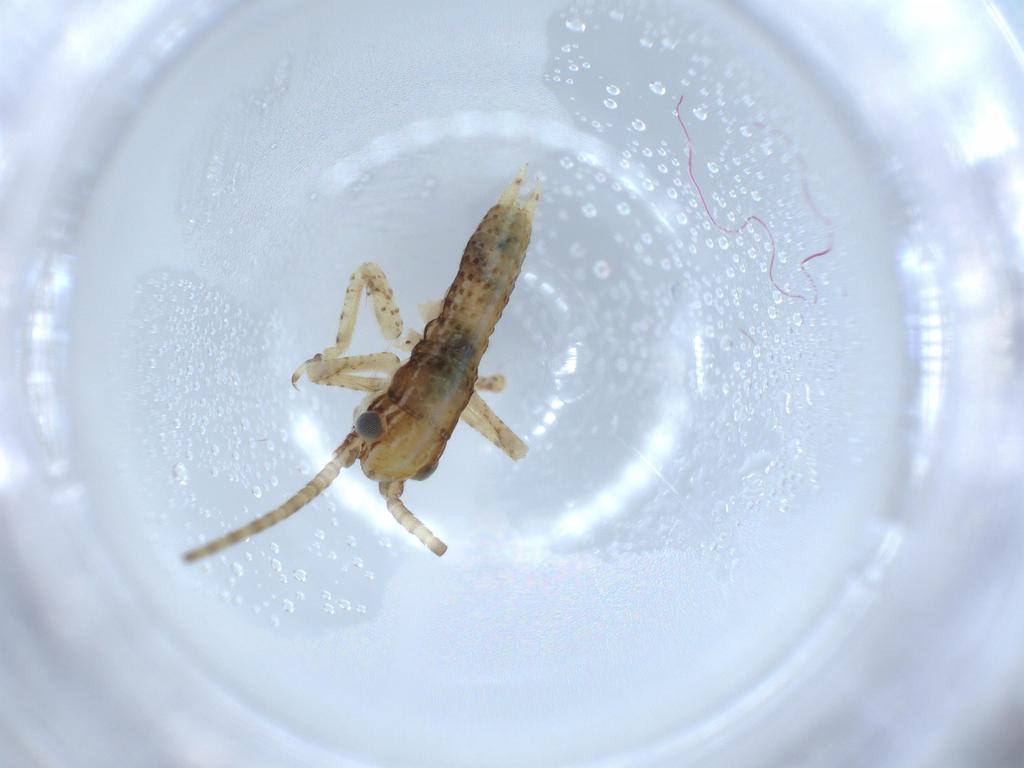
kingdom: Animalia
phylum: Arthropoda
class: Insecta
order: Orthoptera
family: Gryllidae
